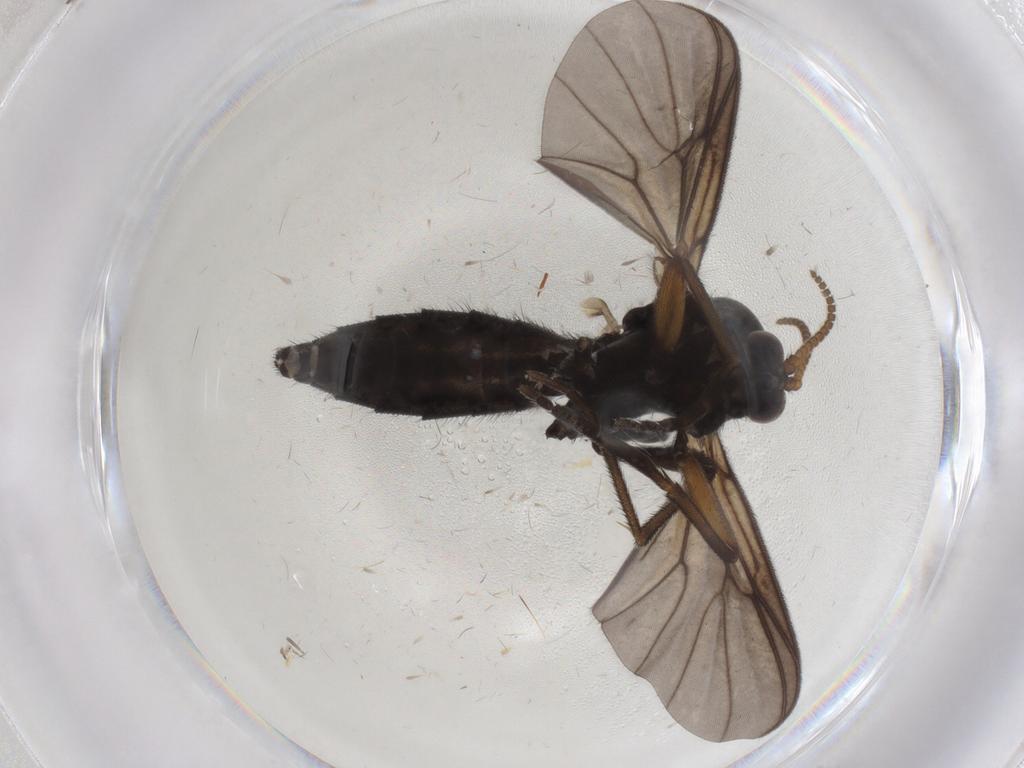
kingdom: Animalia
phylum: Arthropoda
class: Insecta
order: Diptera
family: Mycetophilidae
